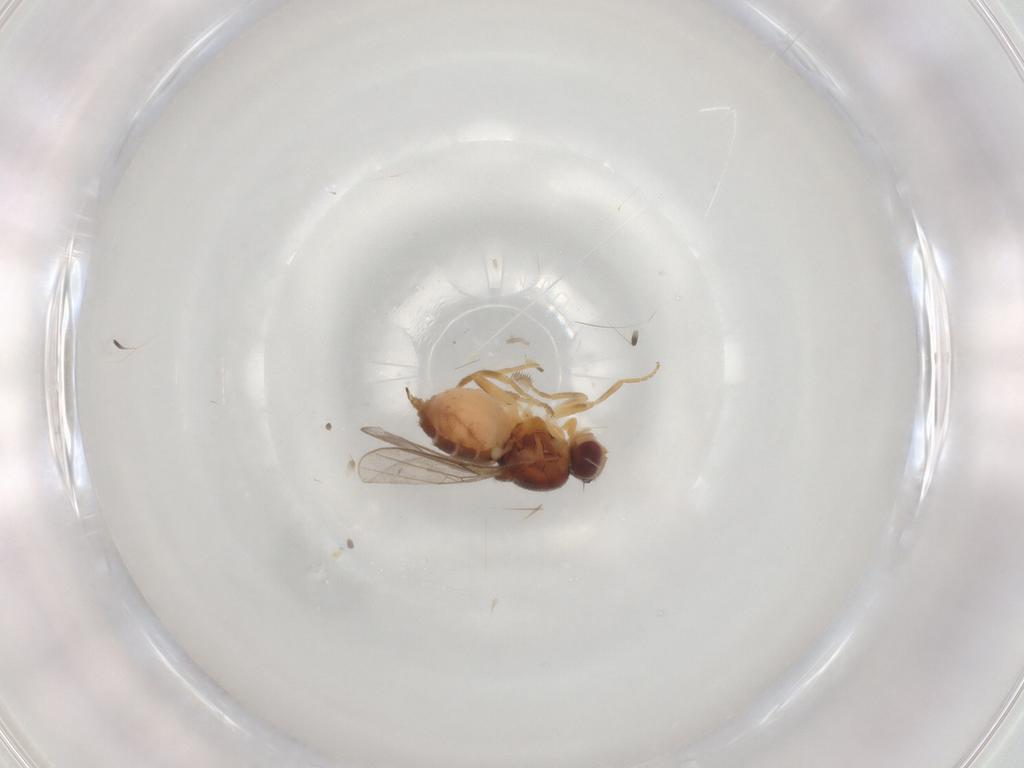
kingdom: Animalia
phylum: Arthropoda
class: Insecta
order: Diptera
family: Chloropidae
